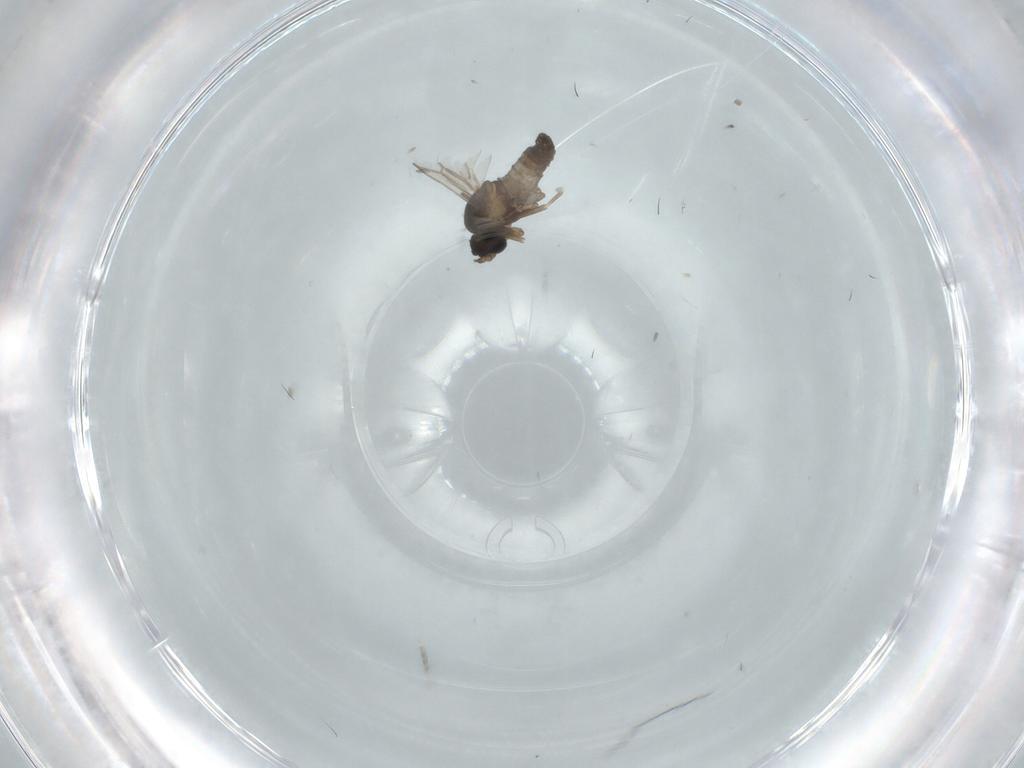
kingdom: Animalia
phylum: Arthropoda
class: Insecta
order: Diptera
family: Cecidomyiidae
